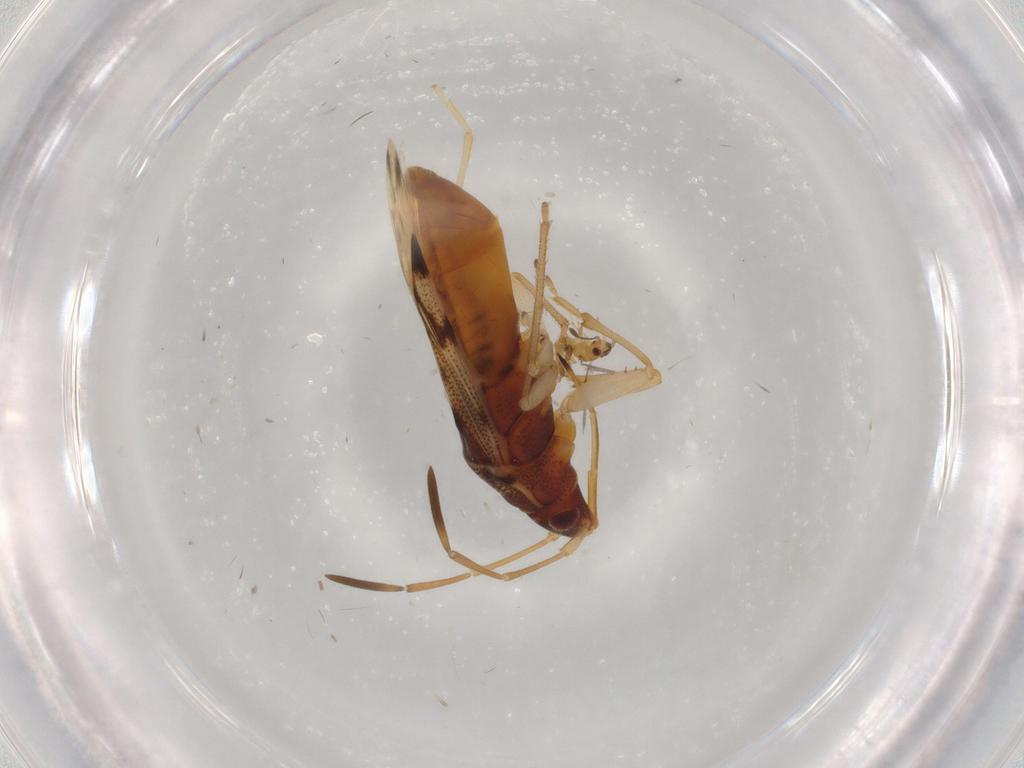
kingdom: Animalia
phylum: Arthropoda
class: Insecta
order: Hemiptera
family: Rhyparochromidae
